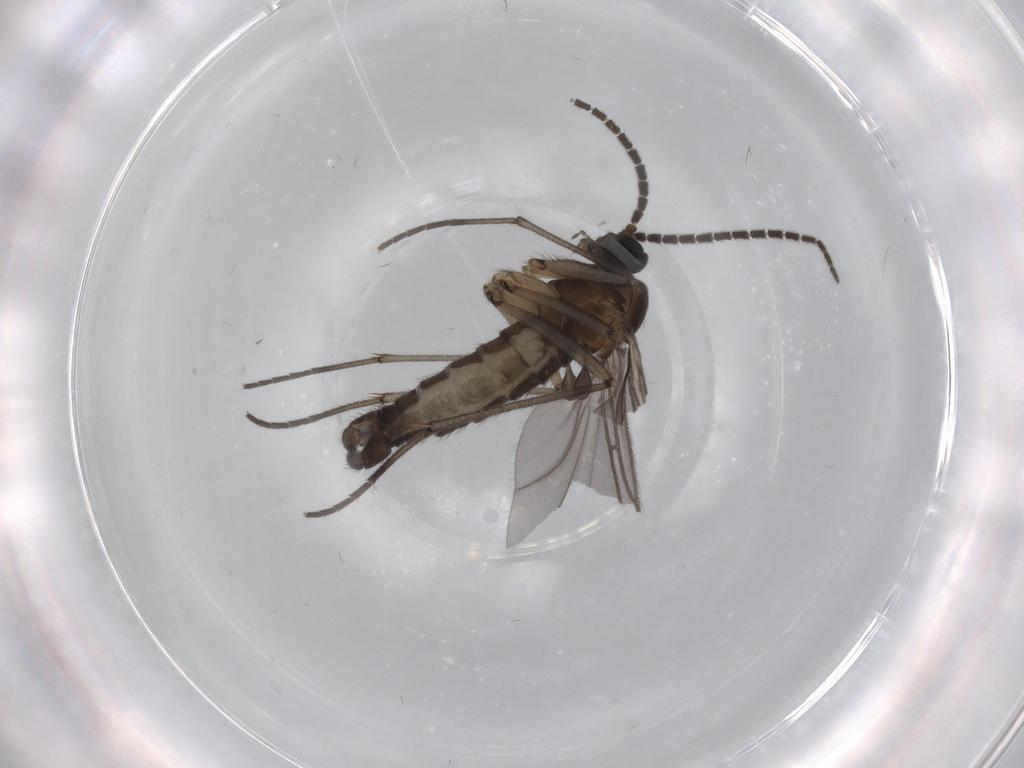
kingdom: Animalia
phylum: Arthropoda
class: Insecta
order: Diptera
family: Sciaridae
